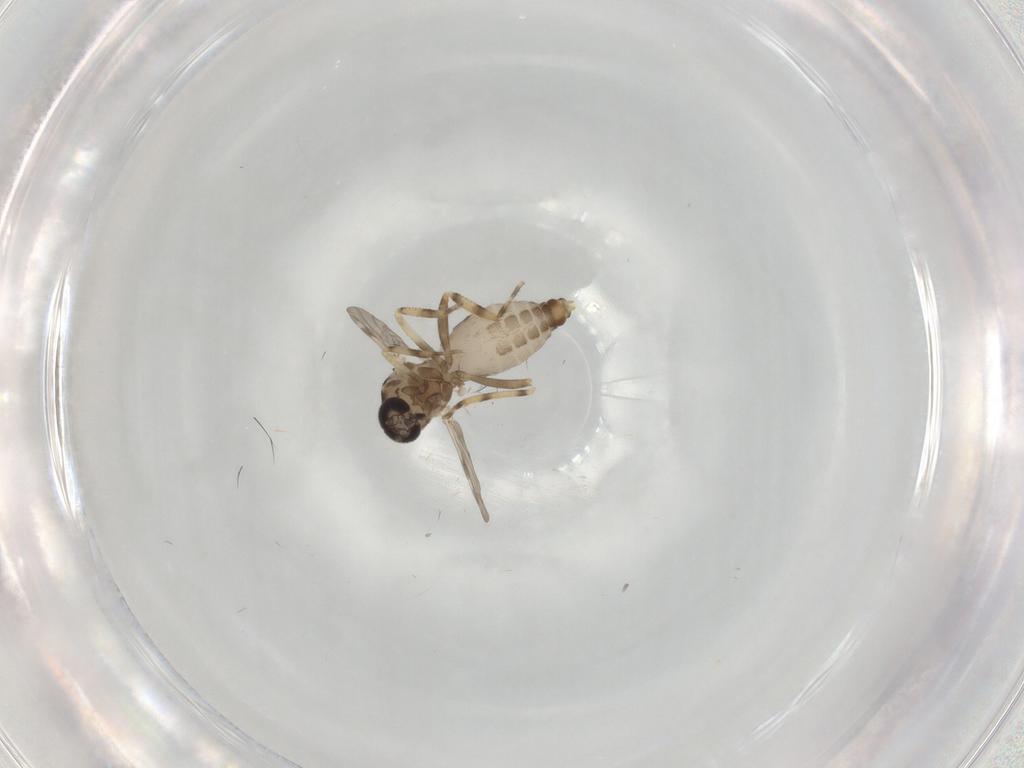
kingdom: Animalia
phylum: Arthropoda
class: Insecta
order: Diptera
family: Ceratopogonidae
